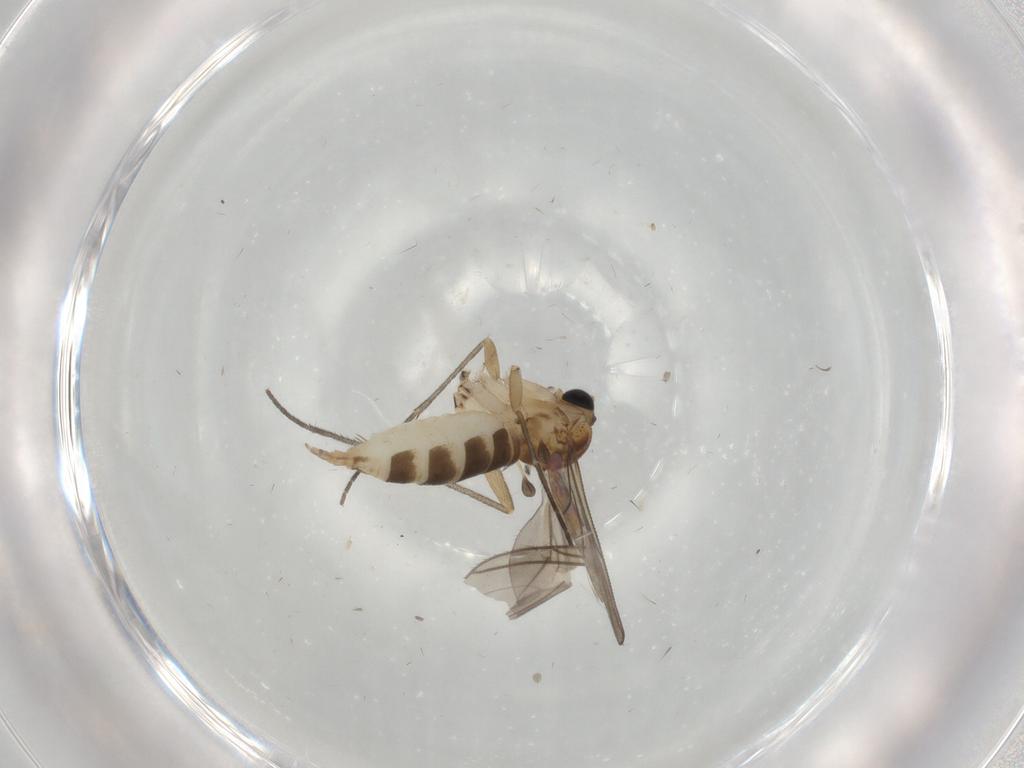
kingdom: Animalia
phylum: Arthropoda
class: Insecta
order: Diptera
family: Sciaridae
